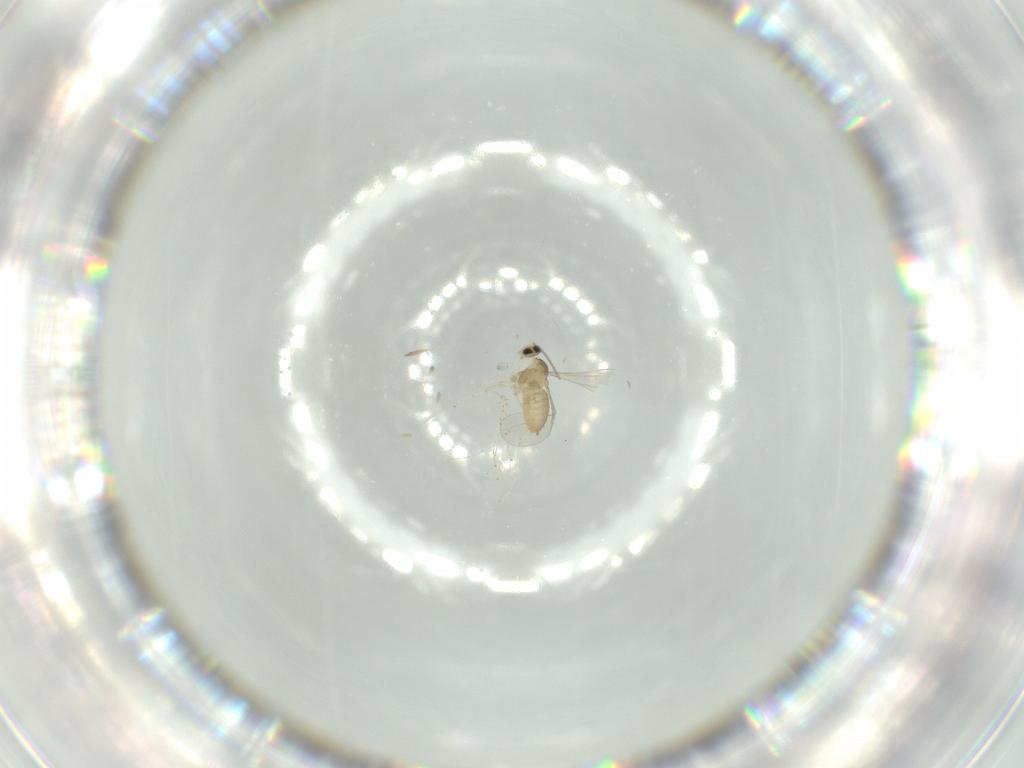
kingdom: Animalia
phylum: Arthropoda
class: Insecta
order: Diptera
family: Cecidomyiidae
